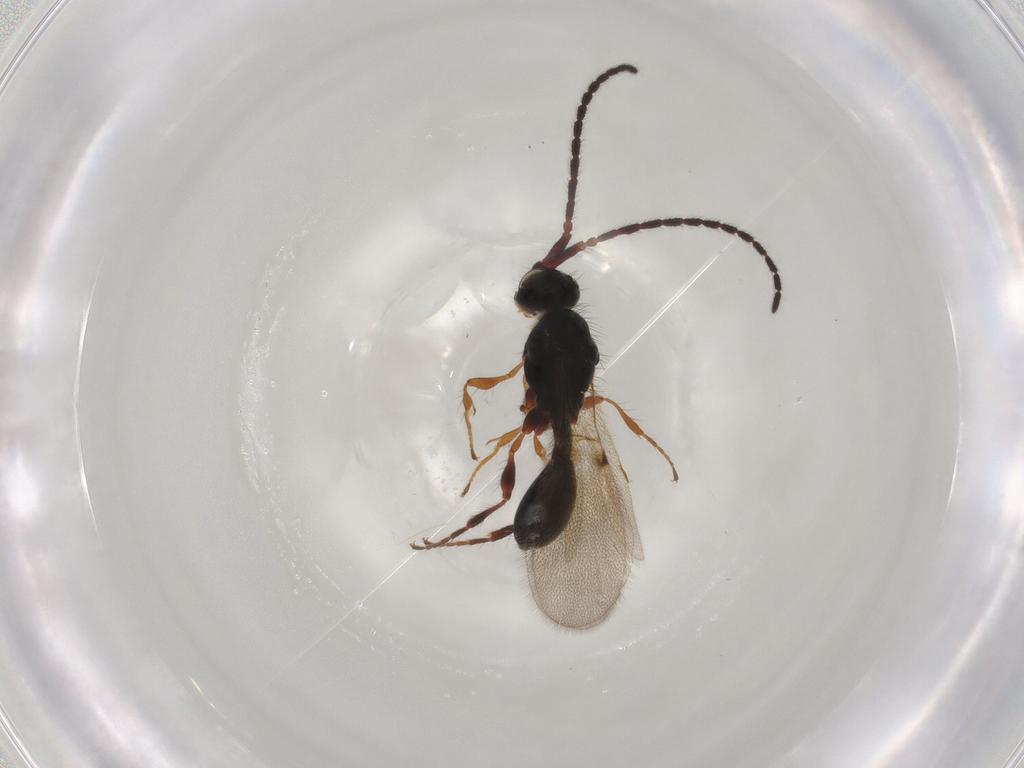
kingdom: Animalia
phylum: Arthropoda
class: Insecta
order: Hymenoptera
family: Diapriidae
